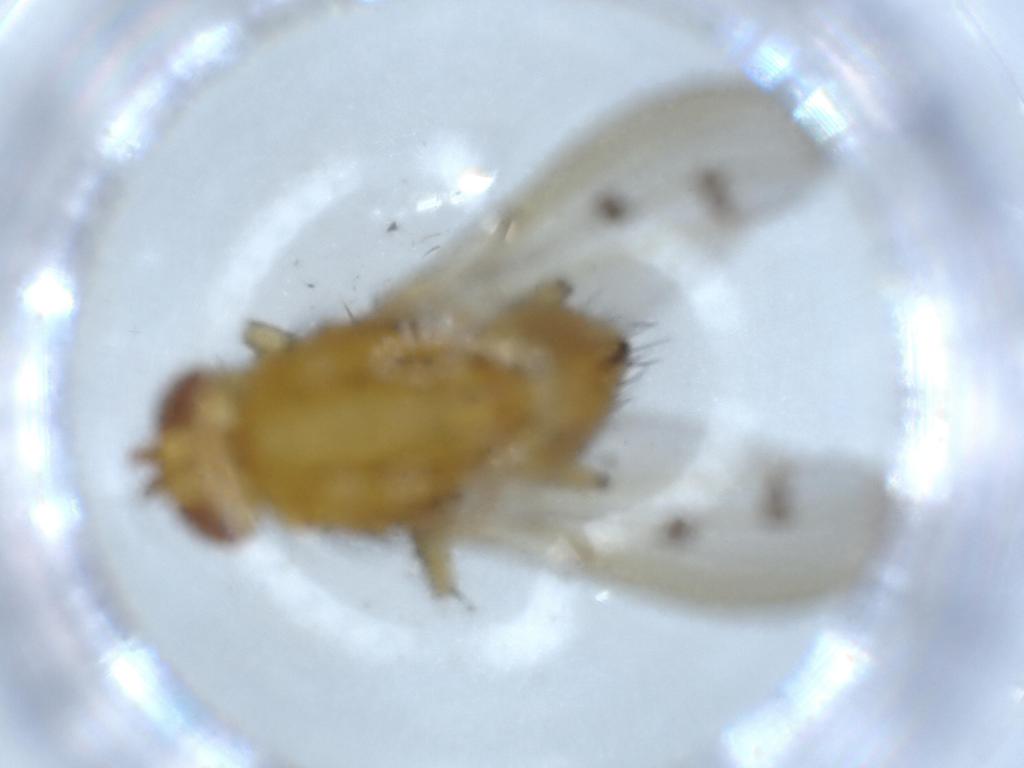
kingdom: Animalia
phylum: Arthropoda
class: Insecta
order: Diptera
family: Sciaridae
